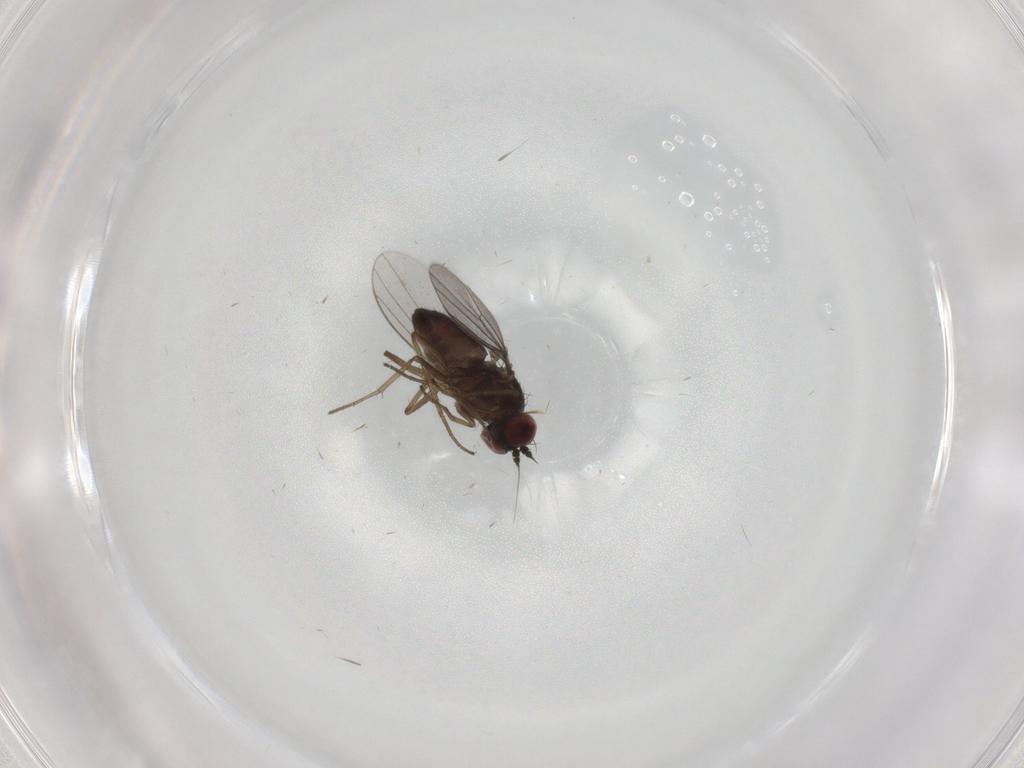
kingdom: Animalia
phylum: Arthropoda
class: Insecta
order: Diptera
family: Dolichopodidae
